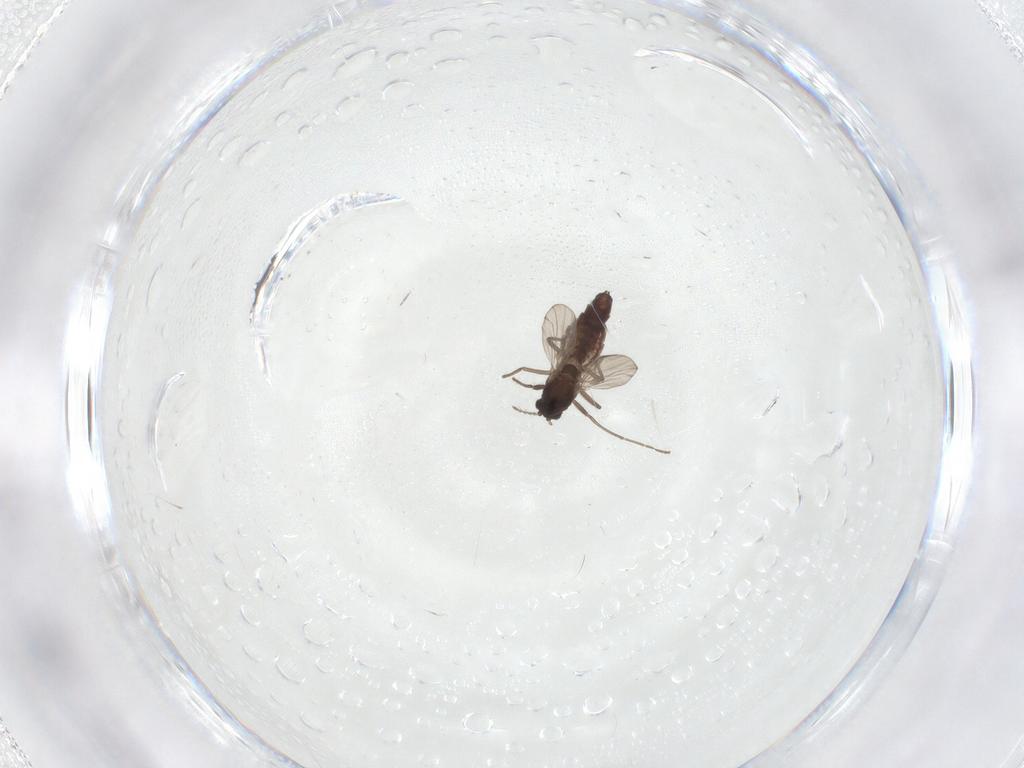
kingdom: Animalia
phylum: Arthropoda
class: Insecta
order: Diptera
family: Chironomidae
